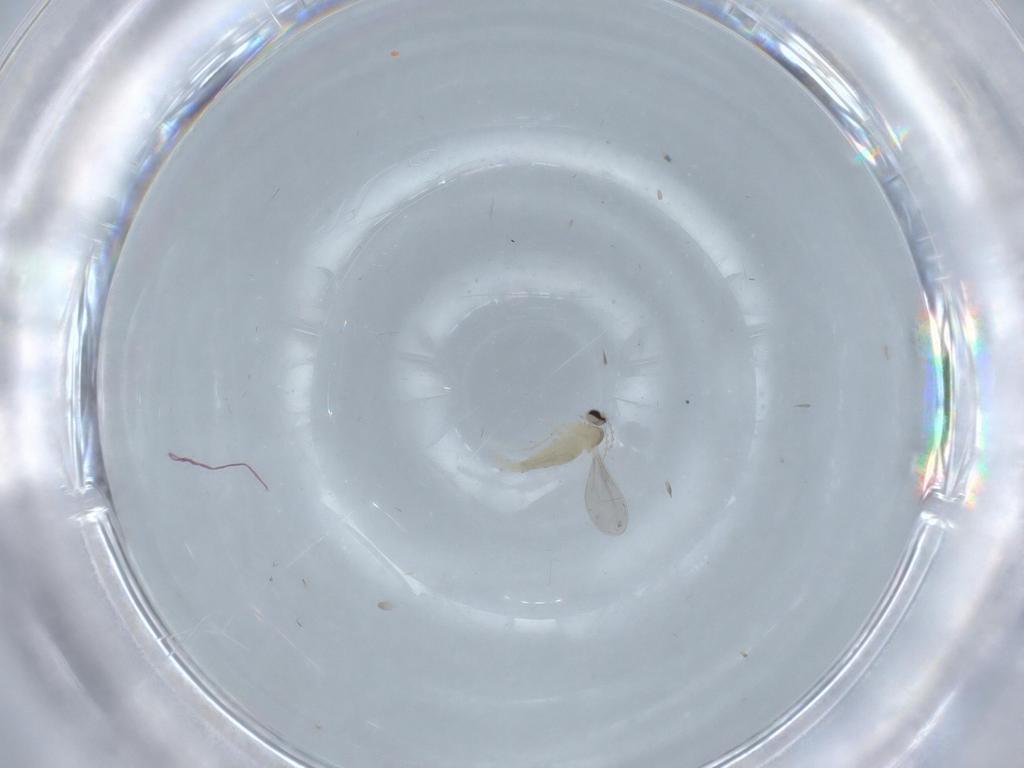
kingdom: Animalia
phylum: Arthropoda
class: Insecta
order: Diptera
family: Cecidomyiidae
